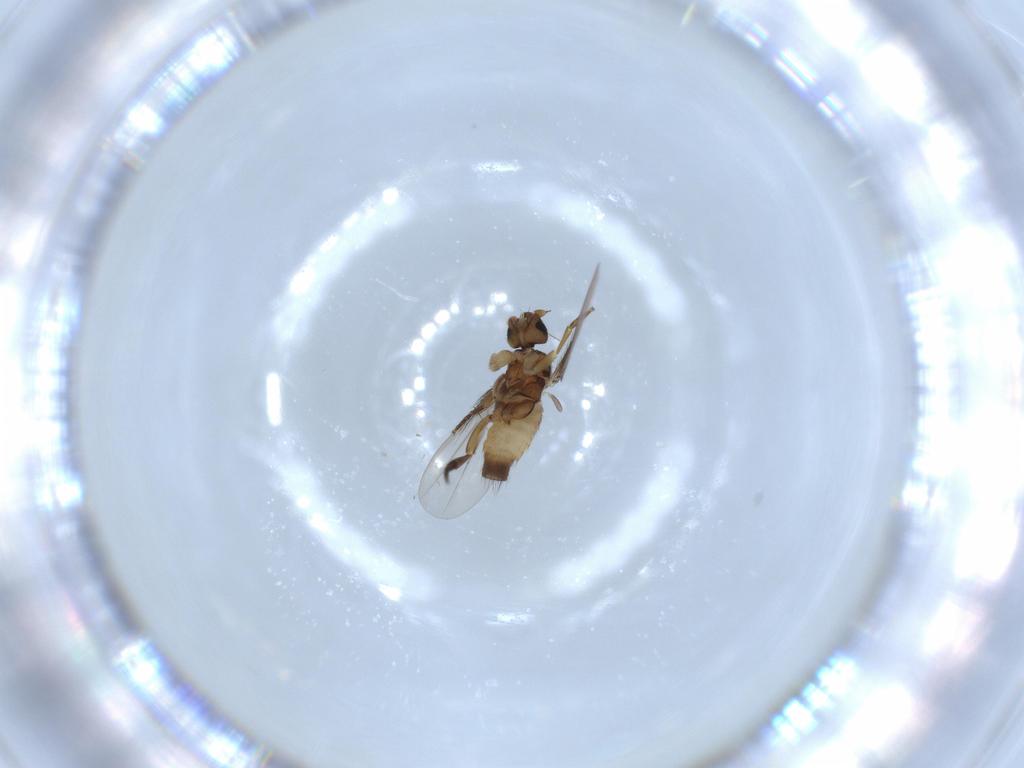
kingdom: Animalia
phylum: Arthropoda
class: Insecta
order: Diptera
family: Phoridae
